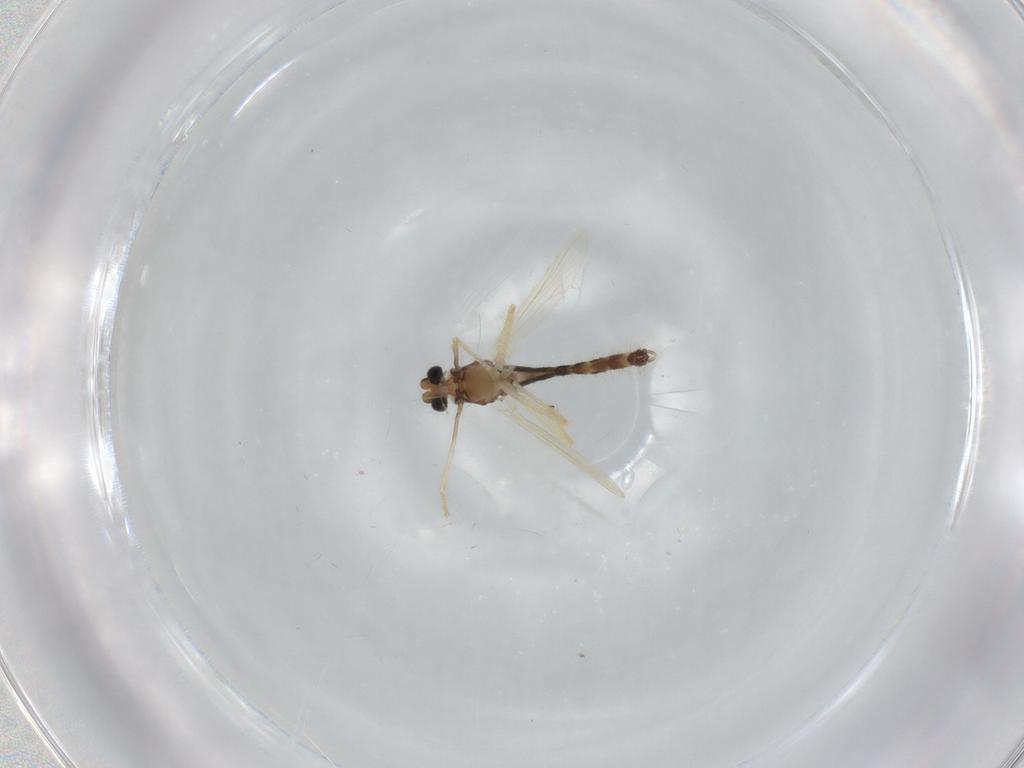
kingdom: Animalia
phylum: Arthropoda
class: Insecta
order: Diptera
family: Chironomidae
